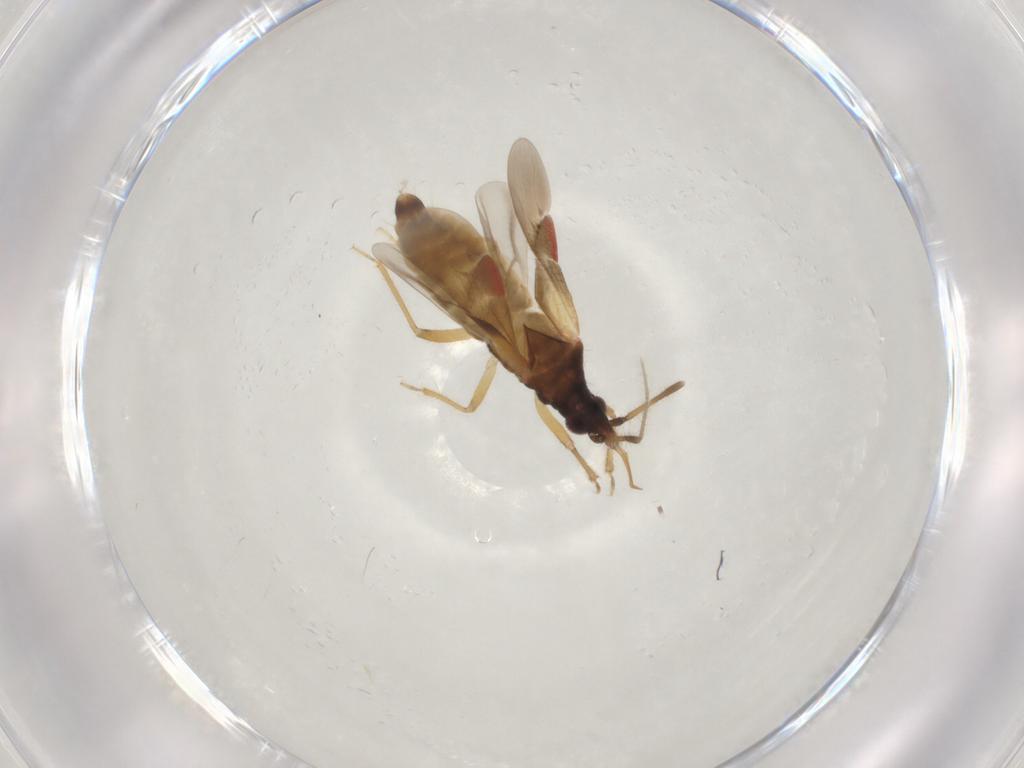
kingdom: Animalia
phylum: Arthropoda
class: Insecta
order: Hemiptera
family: Lasiochilidae
